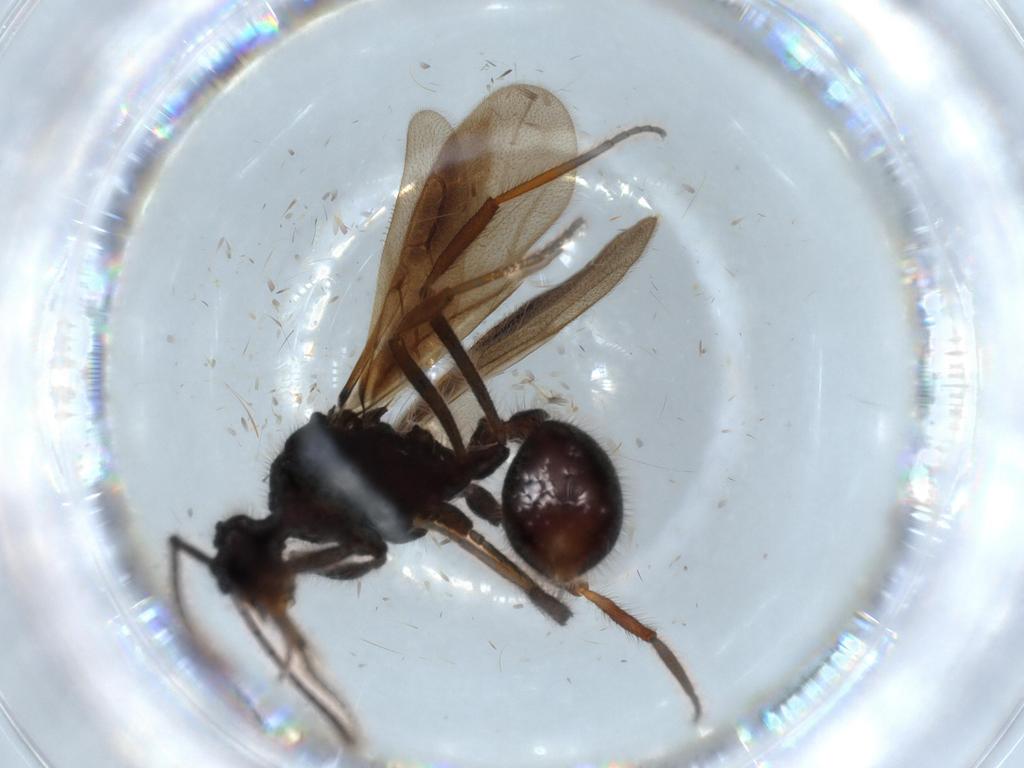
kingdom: Animalia
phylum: Arthropoda
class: Insecta
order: Hymenoptera
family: Formicidae
